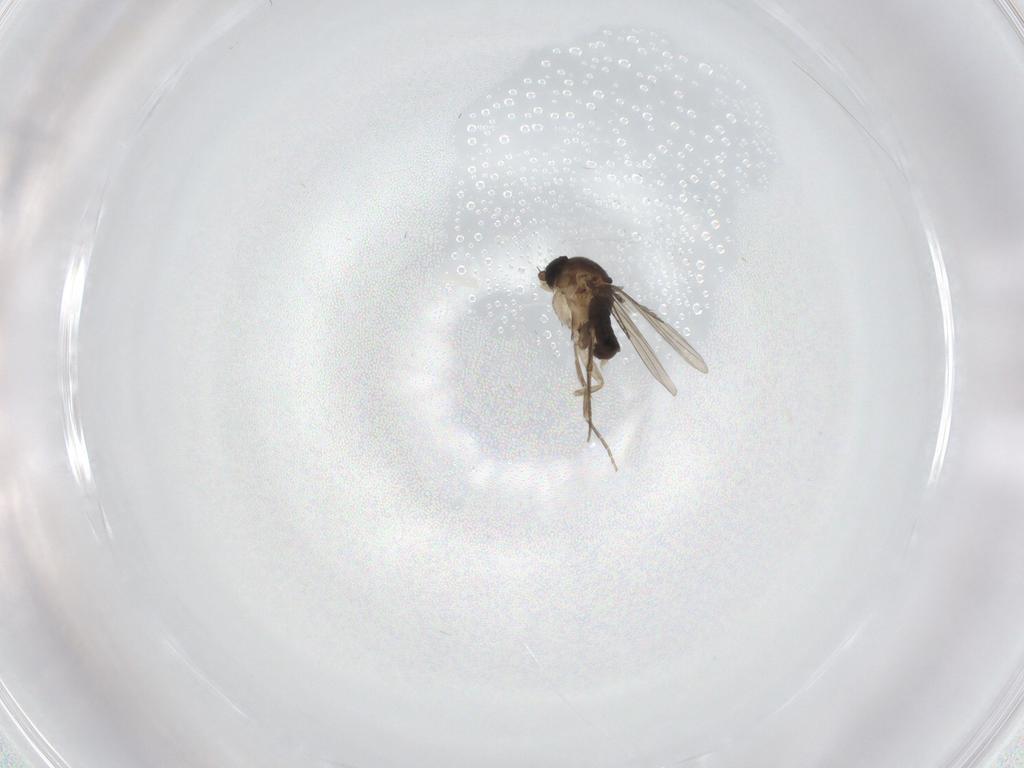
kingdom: Animalia
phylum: Arthropoda
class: Insecta
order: Diptera
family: Phoridae
